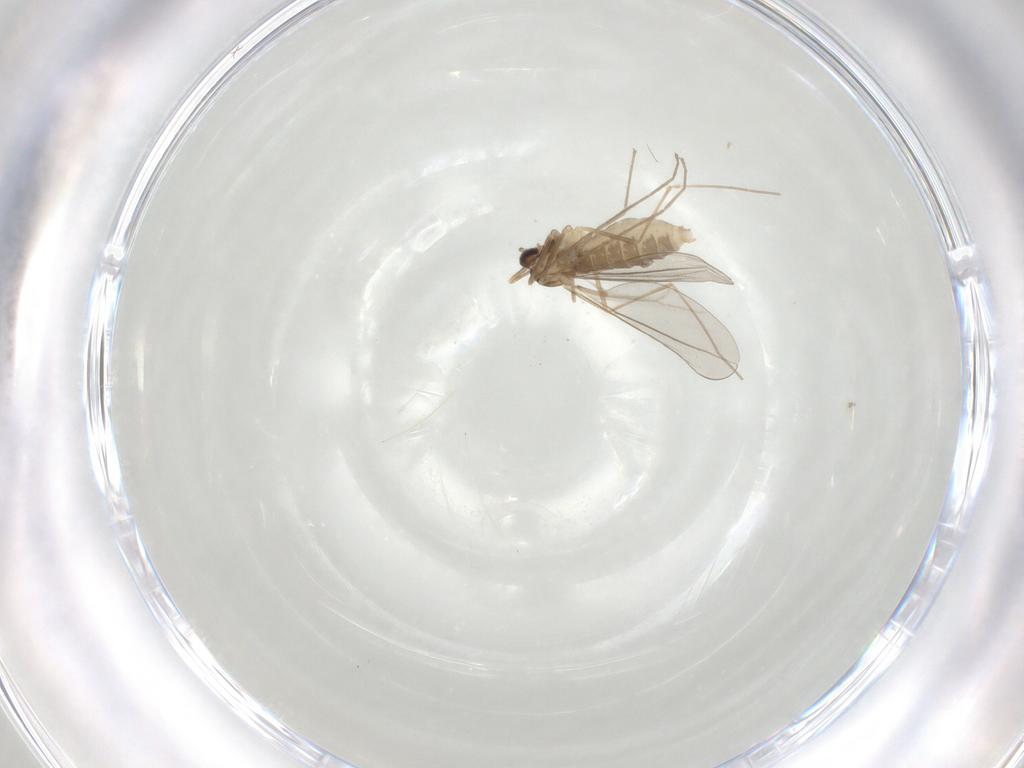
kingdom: Animalia
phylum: Arthropoda
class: Insecta
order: Diptera
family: Cecidomyiidae
